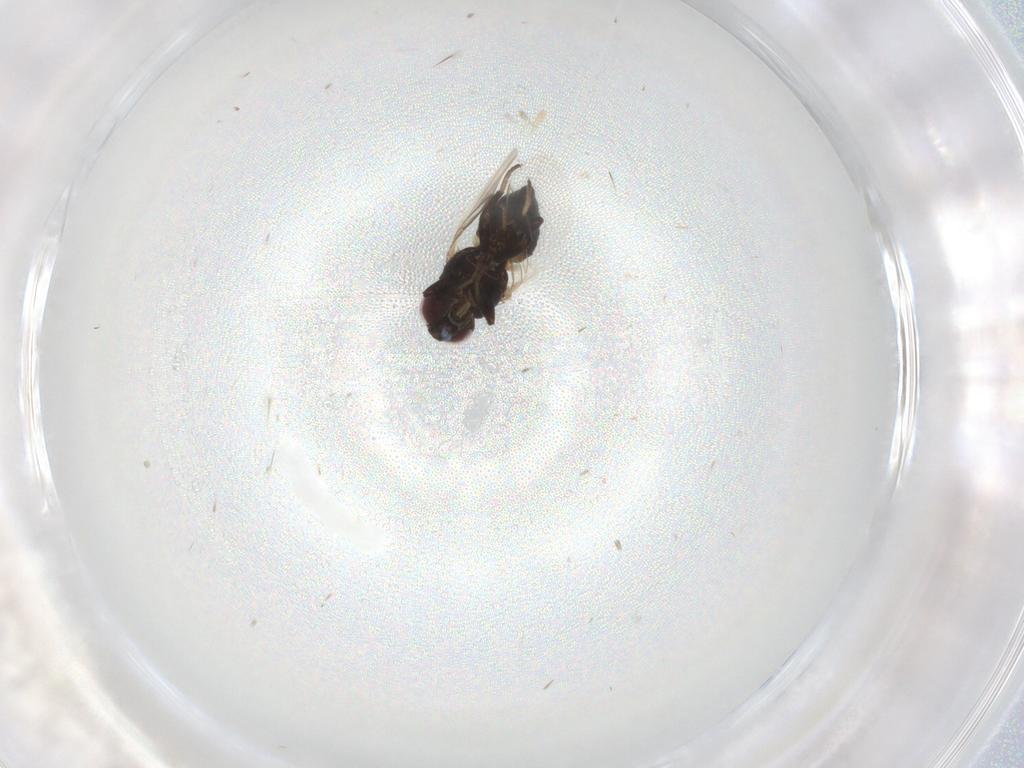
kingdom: Animalia
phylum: Arthropoda
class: Insecta
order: Diptera
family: Agromyzidae
